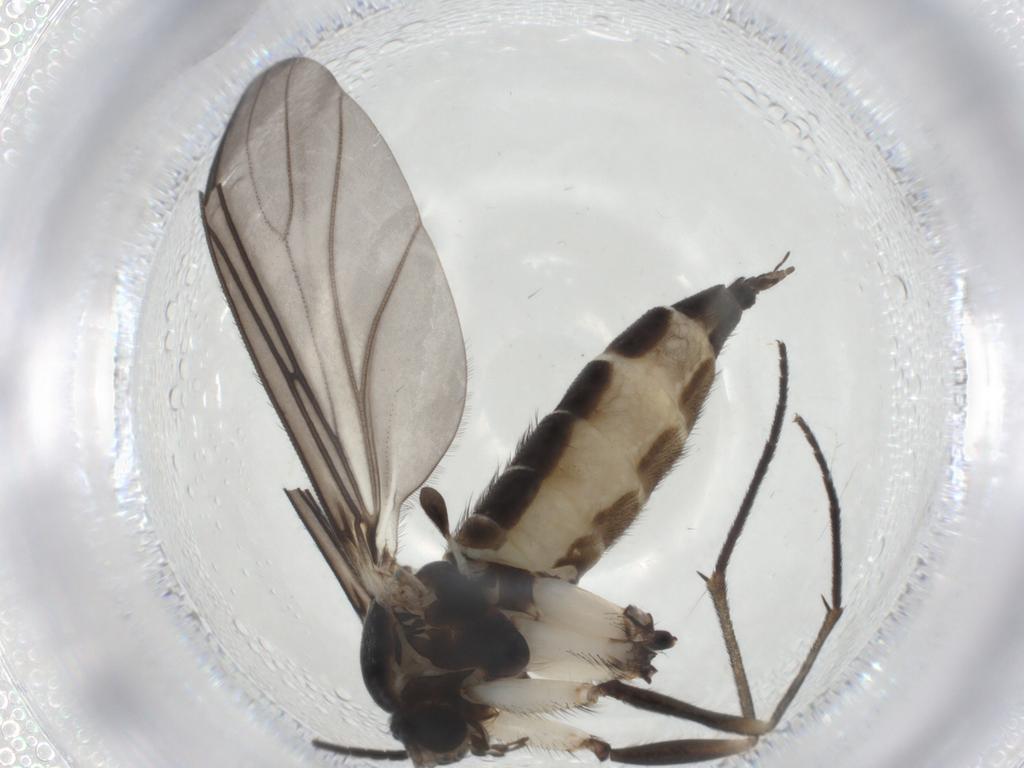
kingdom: Animalia
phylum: Arthropoda
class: Insecta
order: Diptera
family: Sciaridae
